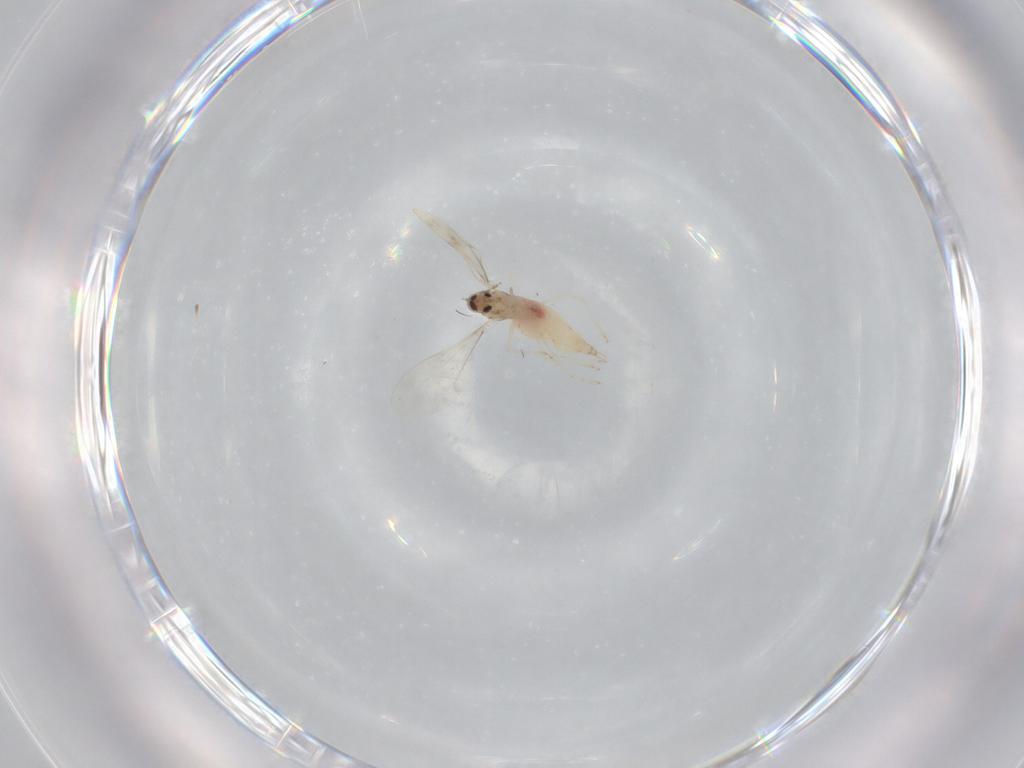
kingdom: Animalia
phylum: Arthropoda
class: Insecta
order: Diptera
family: Cecidomyiidae
